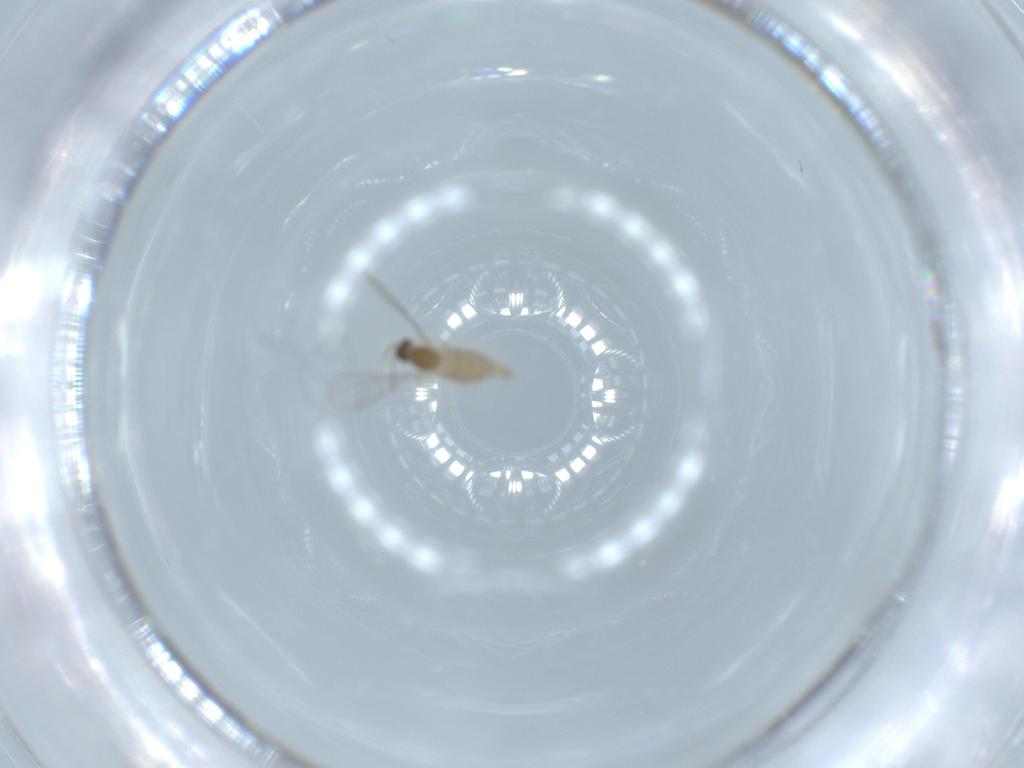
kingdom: Animalia
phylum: Arthropoda
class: Insecta
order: Diptera
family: Cecidomyiidae
